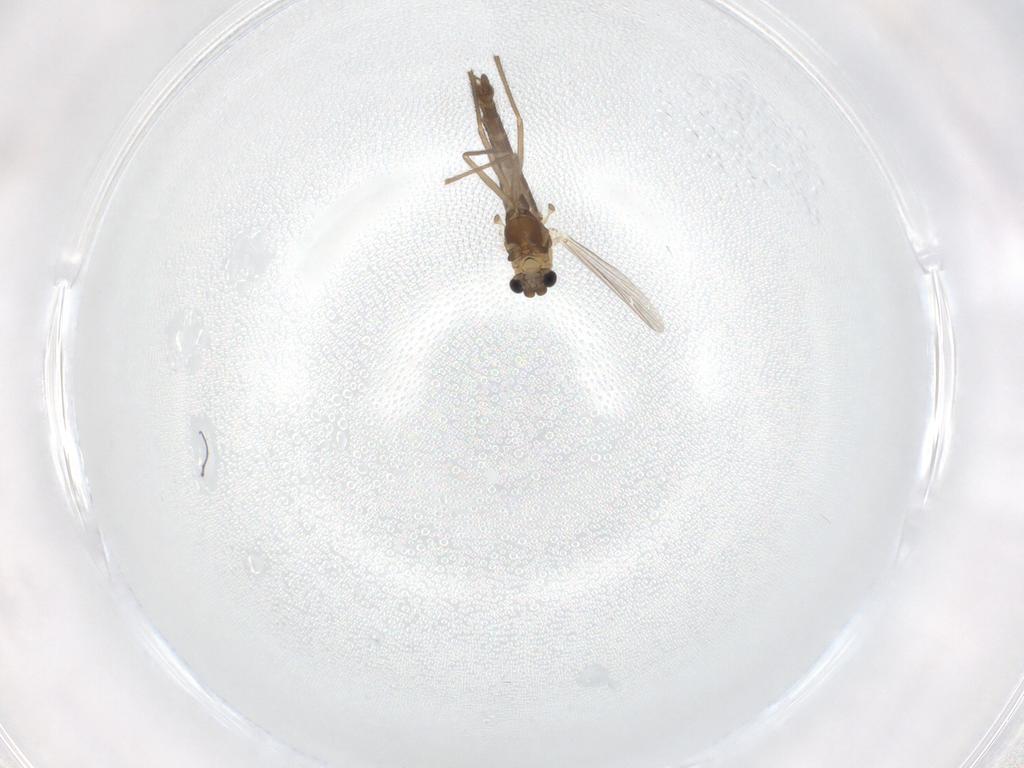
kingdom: Animalia
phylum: Arthropoda
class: Insecta
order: Diptera
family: Chironomidae
